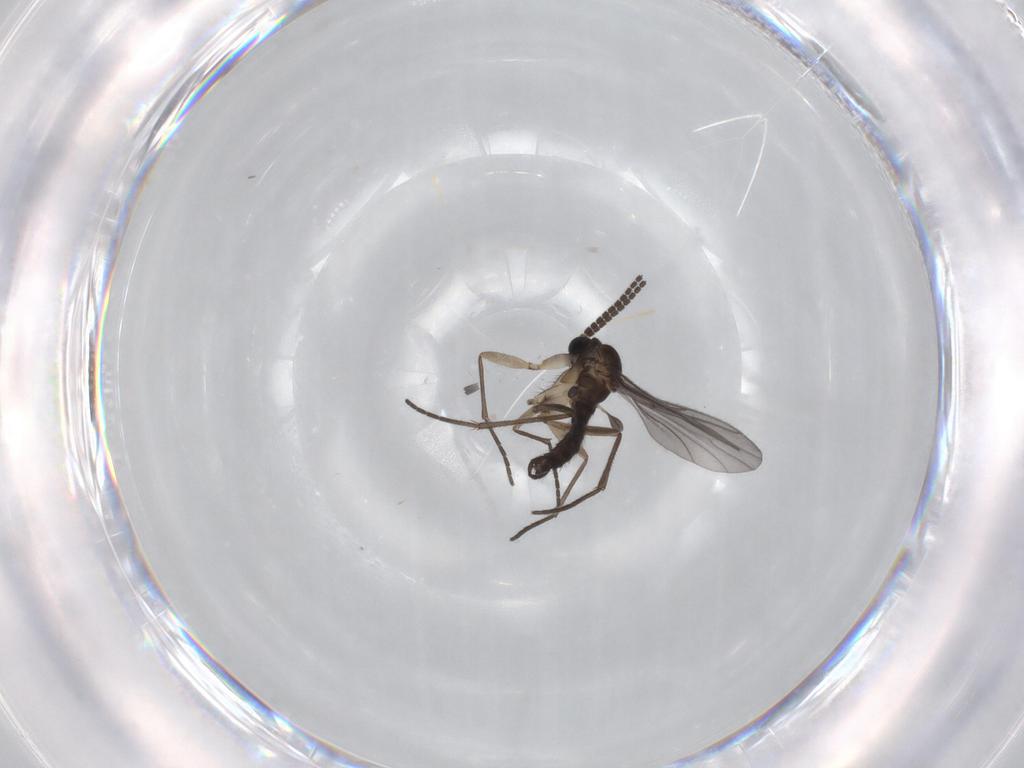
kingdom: Animalia
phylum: Arthropoda
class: Insecta
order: Diptera
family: Sciaridae
